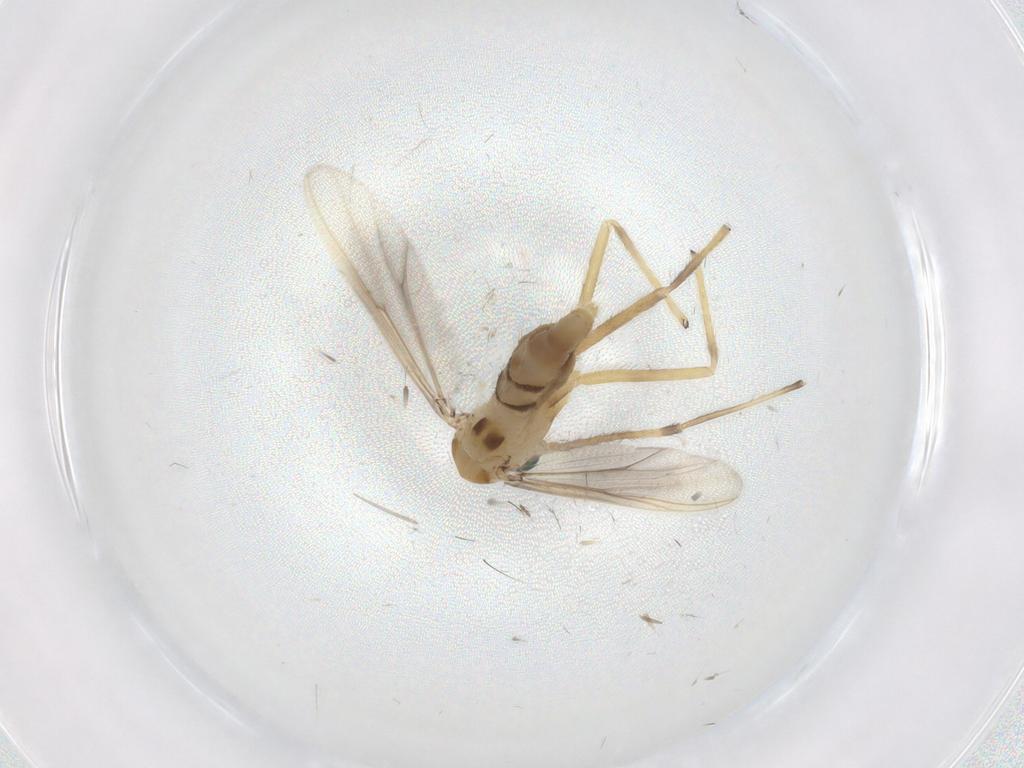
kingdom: Animalia
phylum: Arthropoda
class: Insecta
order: Diptera
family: Chironomidae
